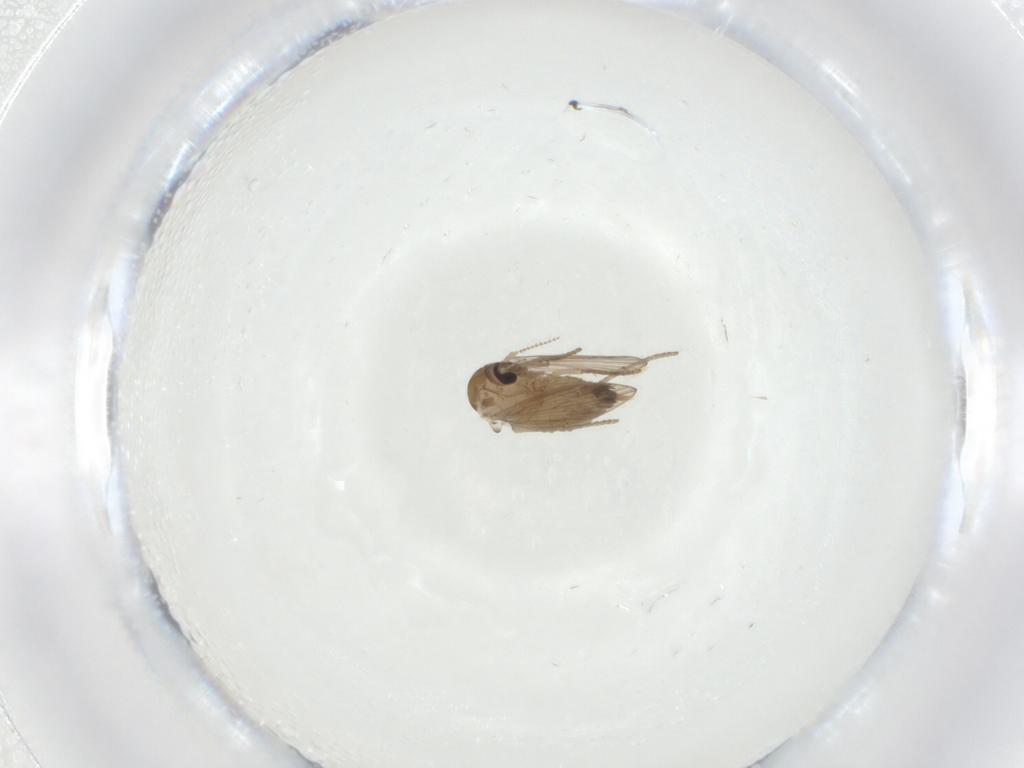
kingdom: Animalia
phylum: Arthropoda
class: Insecta
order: Diptera
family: Psychodidae
